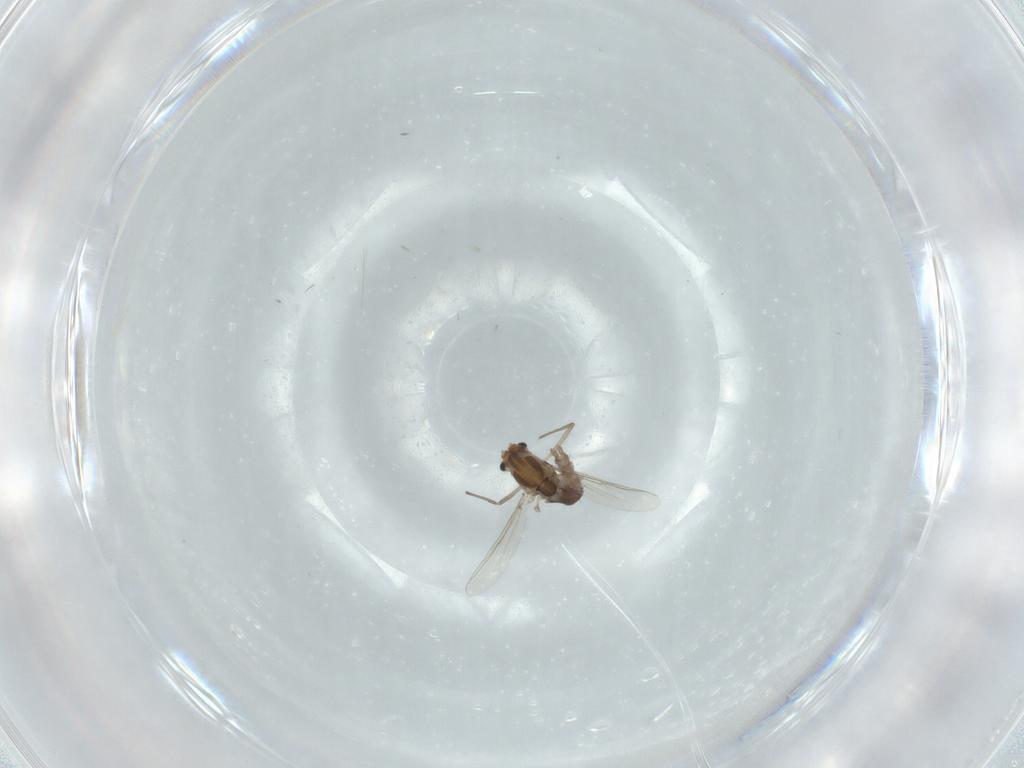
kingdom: Animalia
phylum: Arthropoda
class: Insecta
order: Diptera
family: Chironomidae
